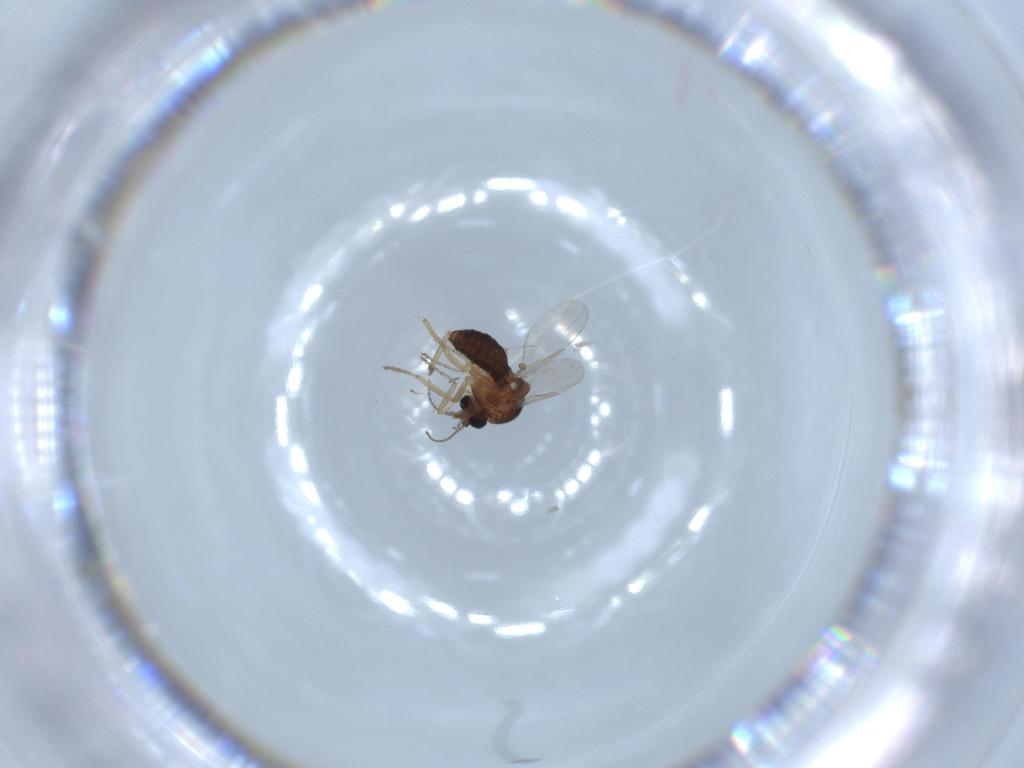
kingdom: Animalia
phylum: Arthropoda
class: Insecta
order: Diptera
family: Ceratopogonidae
